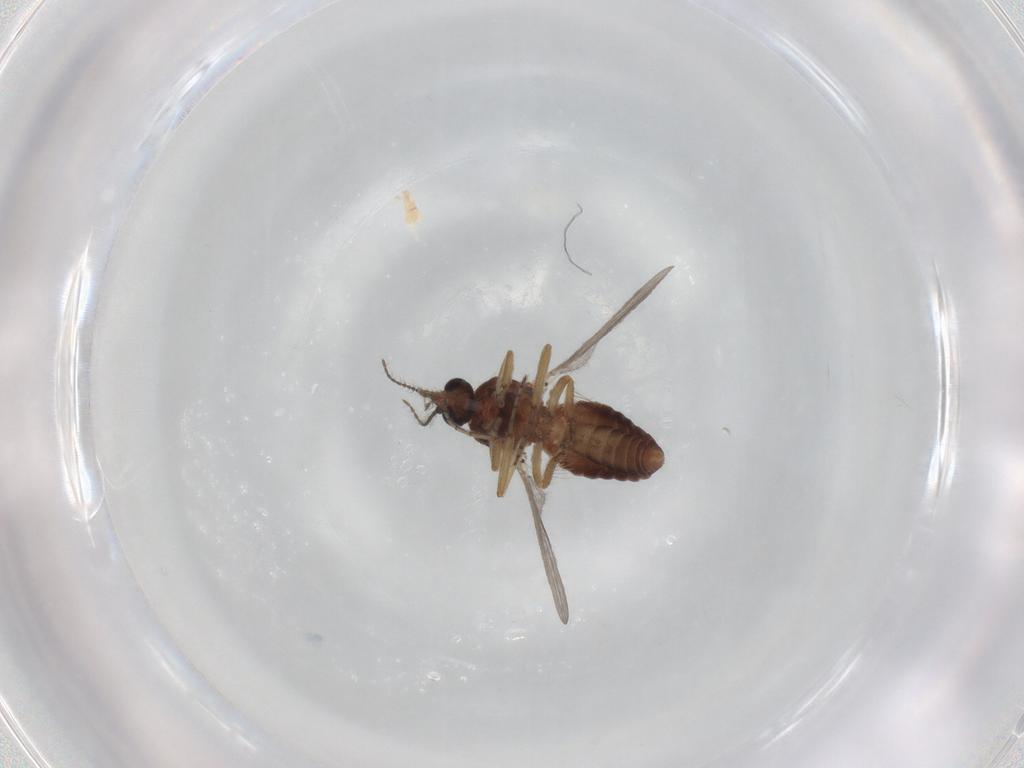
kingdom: Animalia
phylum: Arthropoda
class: Insecta
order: Diptera
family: Ceratopogonidae
